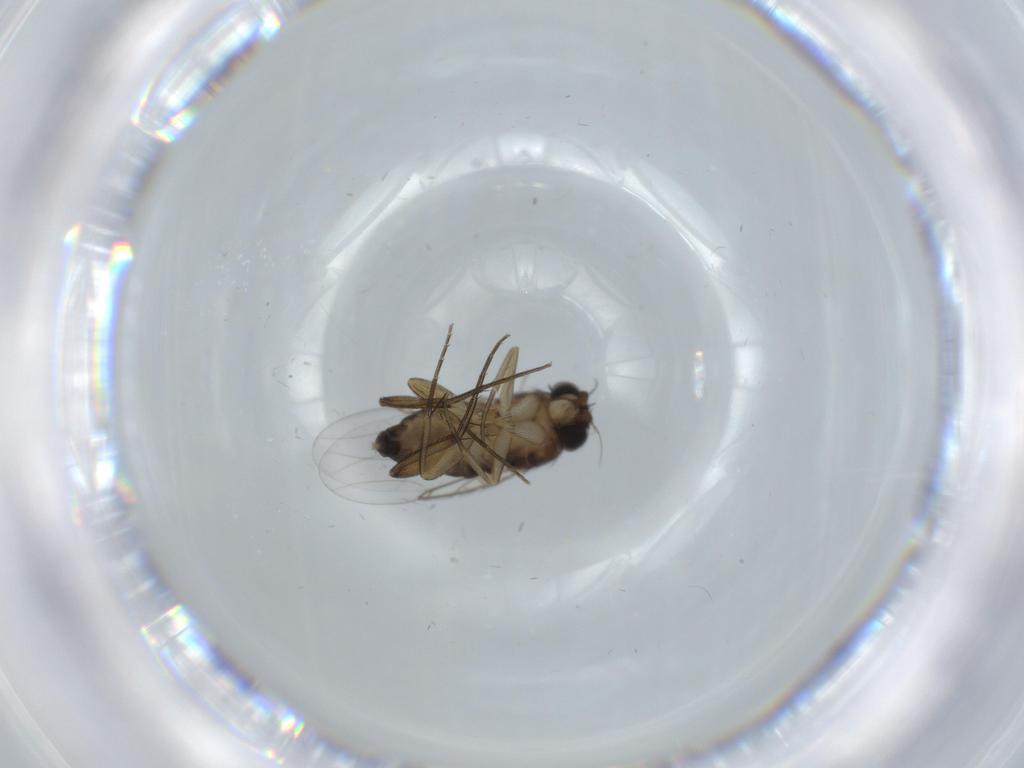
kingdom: Animalia
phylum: Arthropoda
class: Insecta
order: Diptera
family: Phoridae
